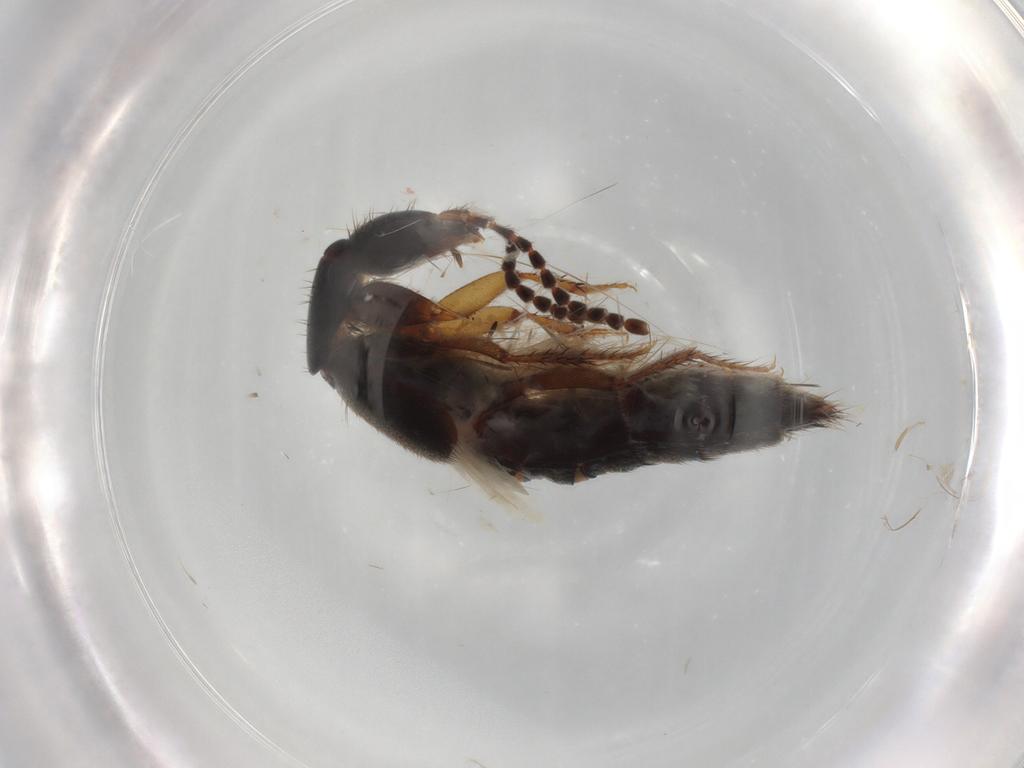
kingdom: Animalia
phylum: Arthropoda
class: Insecta
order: Coleoptera
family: Staphylinidae
